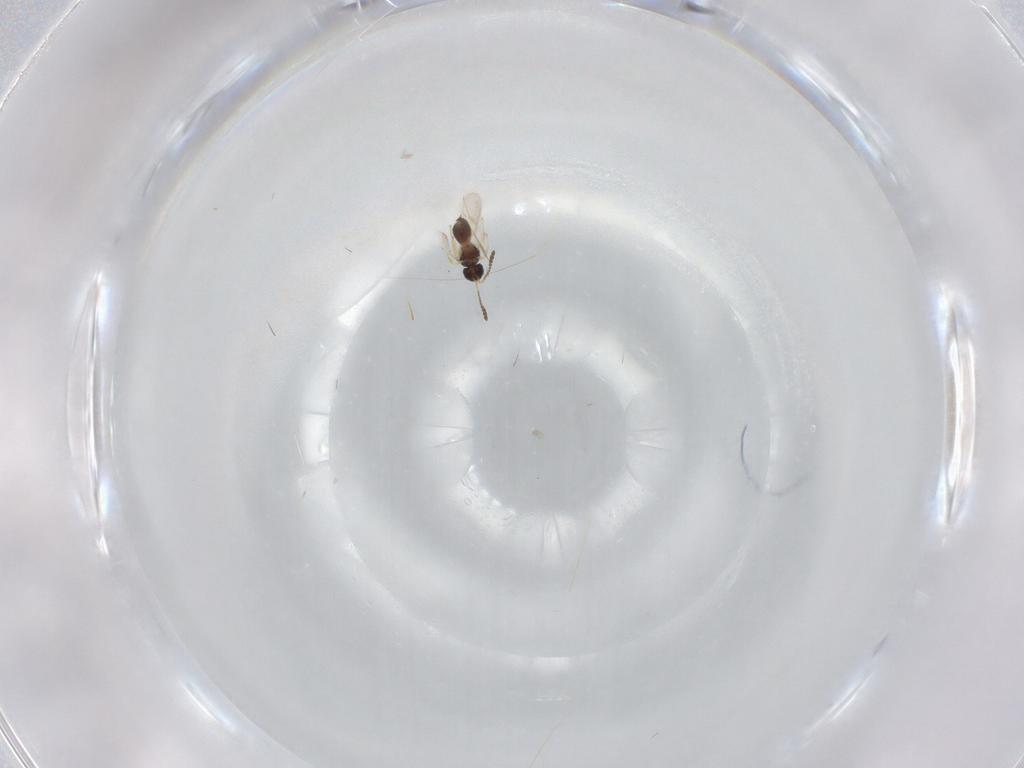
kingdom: Animalia
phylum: Arthropoda
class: Insecta
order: Hymenoptera
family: Scelionidae
